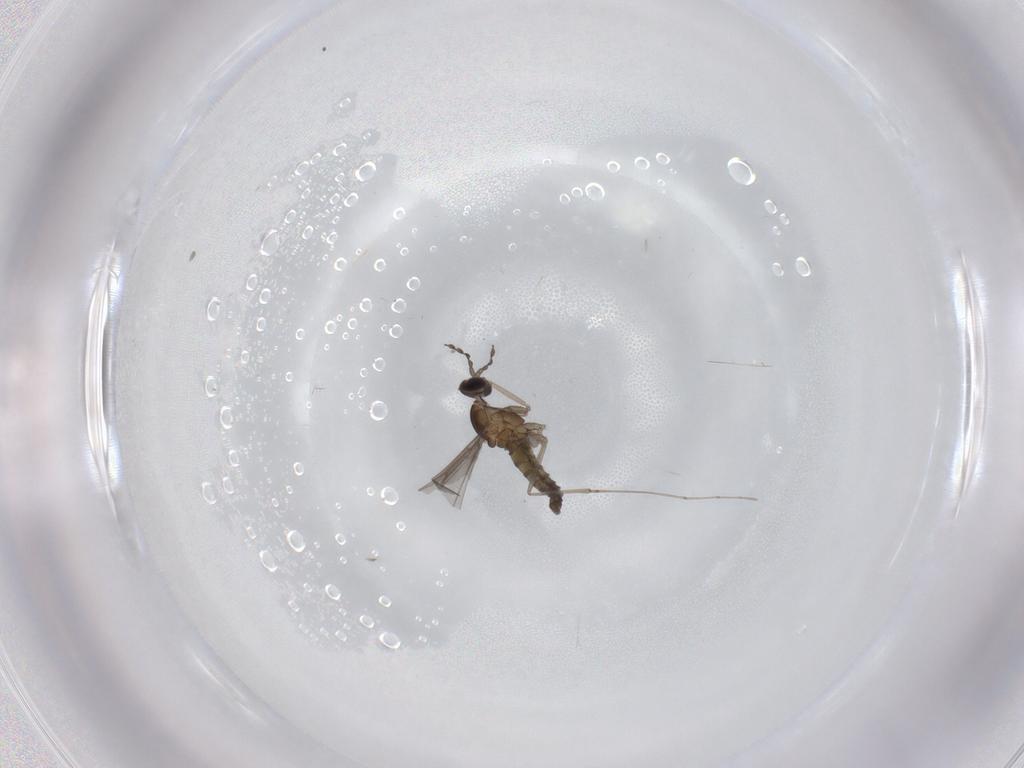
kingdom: Animalia
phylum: Arthropoda
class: Insecta
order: Diptera
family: Cecidomyiidae
